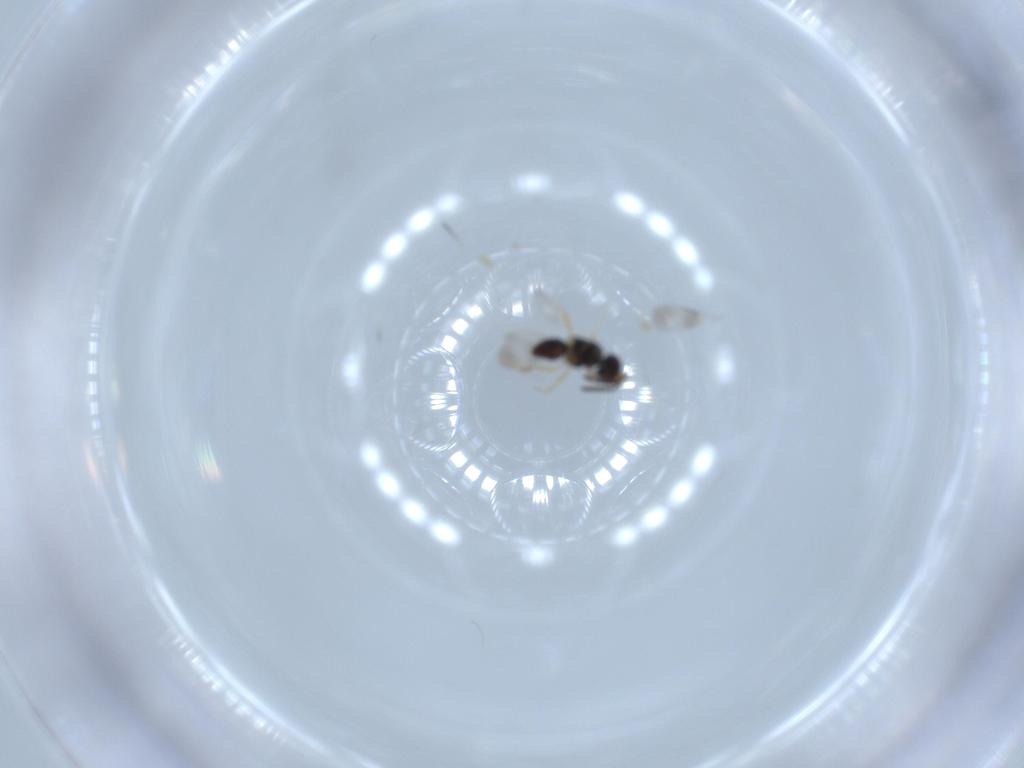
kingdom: Animalia
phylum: Arthropoda
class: Insecta
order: Hymenoptera
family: Ceraphronidae
